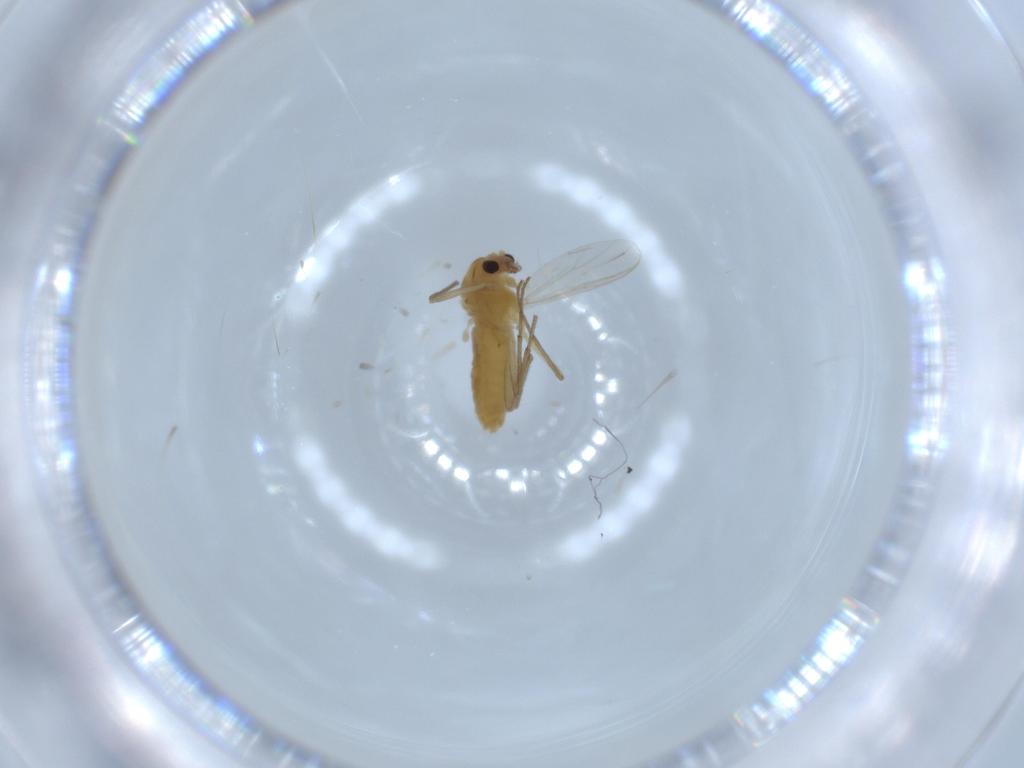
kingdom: Animalia
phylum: Arthropoda
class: Insecta
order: Diptera
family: Chironomidae
